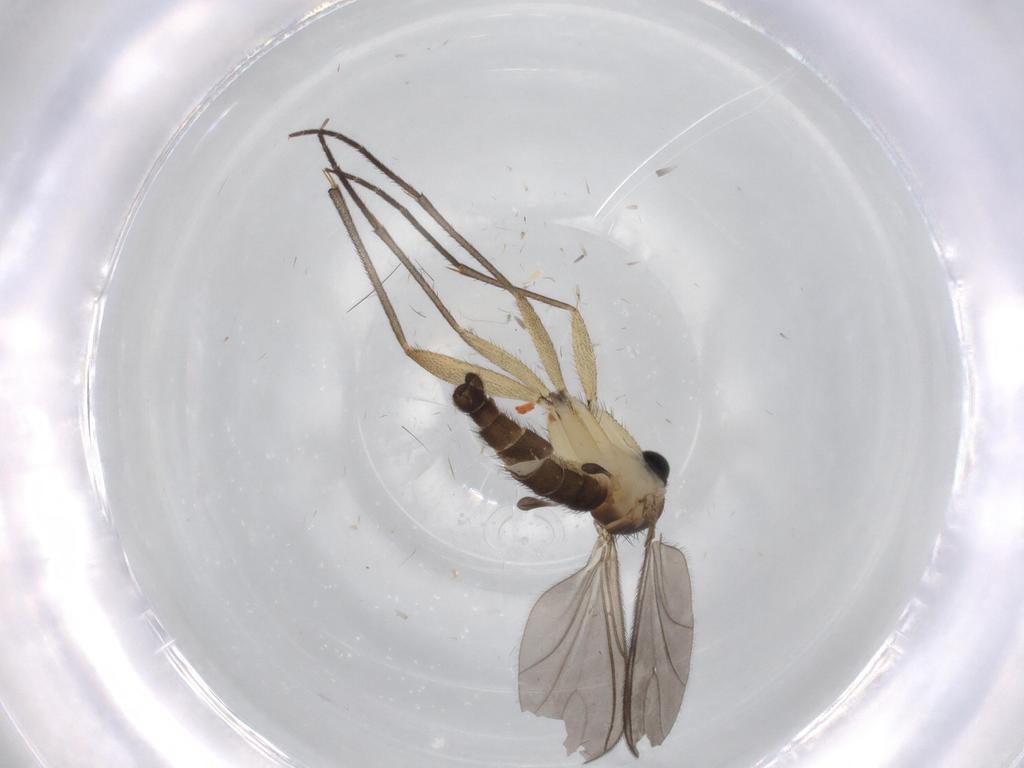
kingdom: Animalia
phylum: Arthropoda
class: Insecta
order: Diptera
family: Sciaridae
